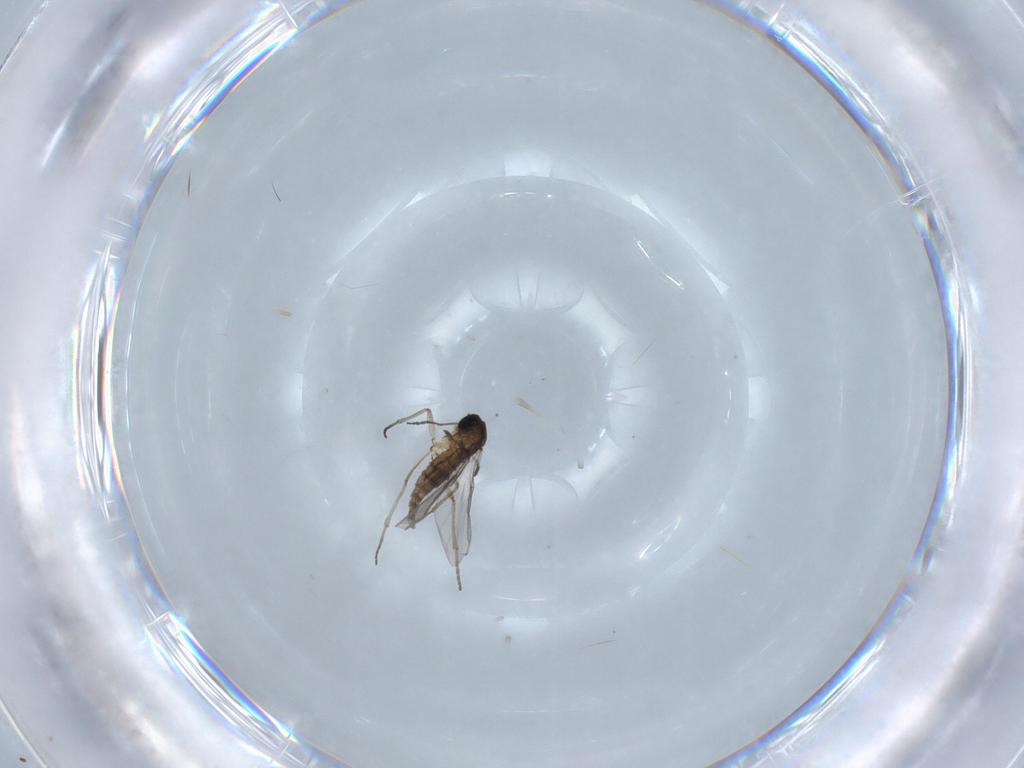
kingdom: Animalia
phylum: Arthropoda
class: Insecta
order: Diptera
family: Sciaridae
